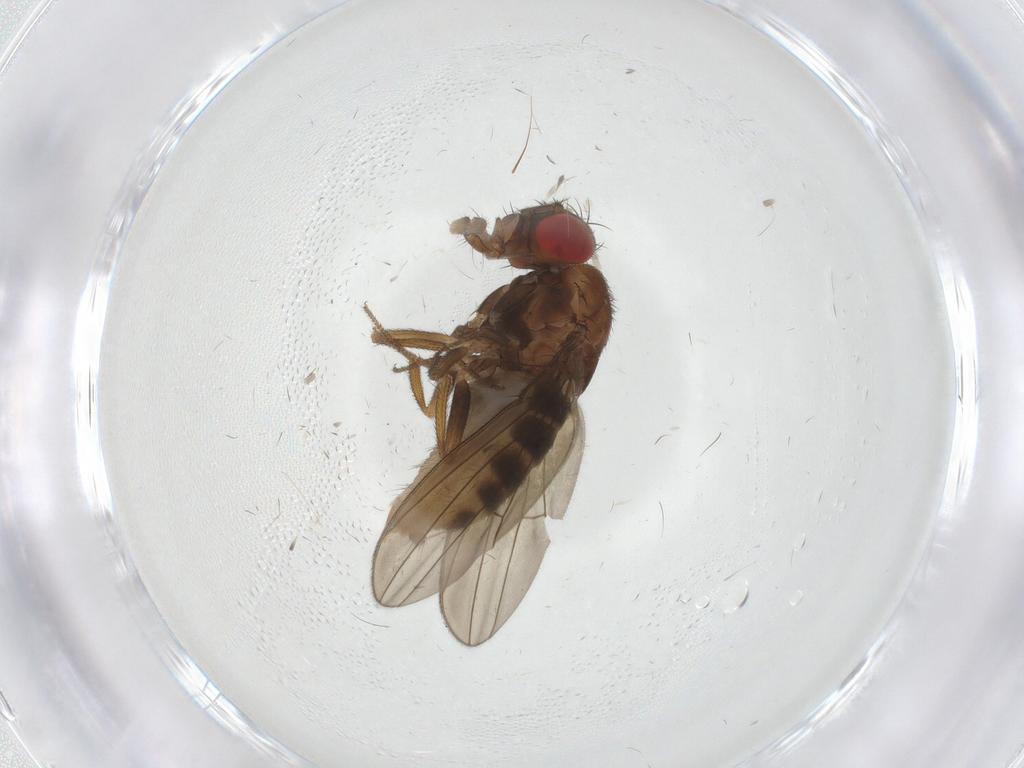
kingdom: Animalia
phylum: Arthropoda
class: Insecta
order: Diptera
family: Drosophilidae
